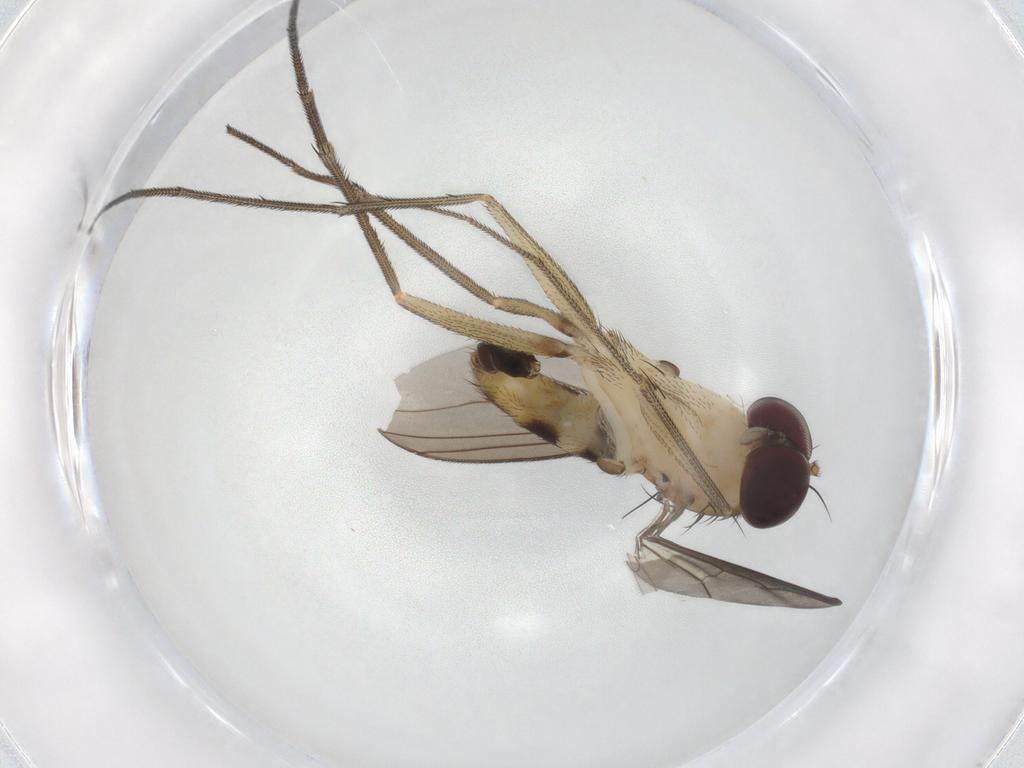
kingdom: Animalia
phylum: Arthropoda
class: Insecta
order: Diptera
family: Dolichopodidae
